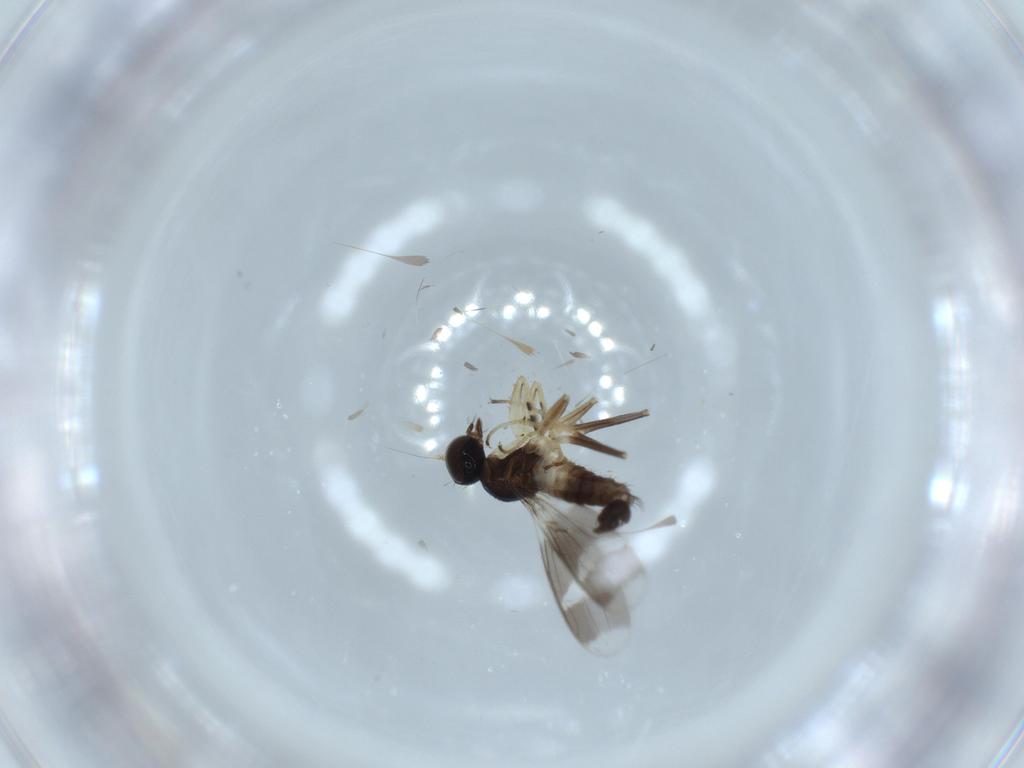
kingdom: Animalia
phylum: Arthropoda
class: Insecta
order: Diptera
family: Hybotidae
